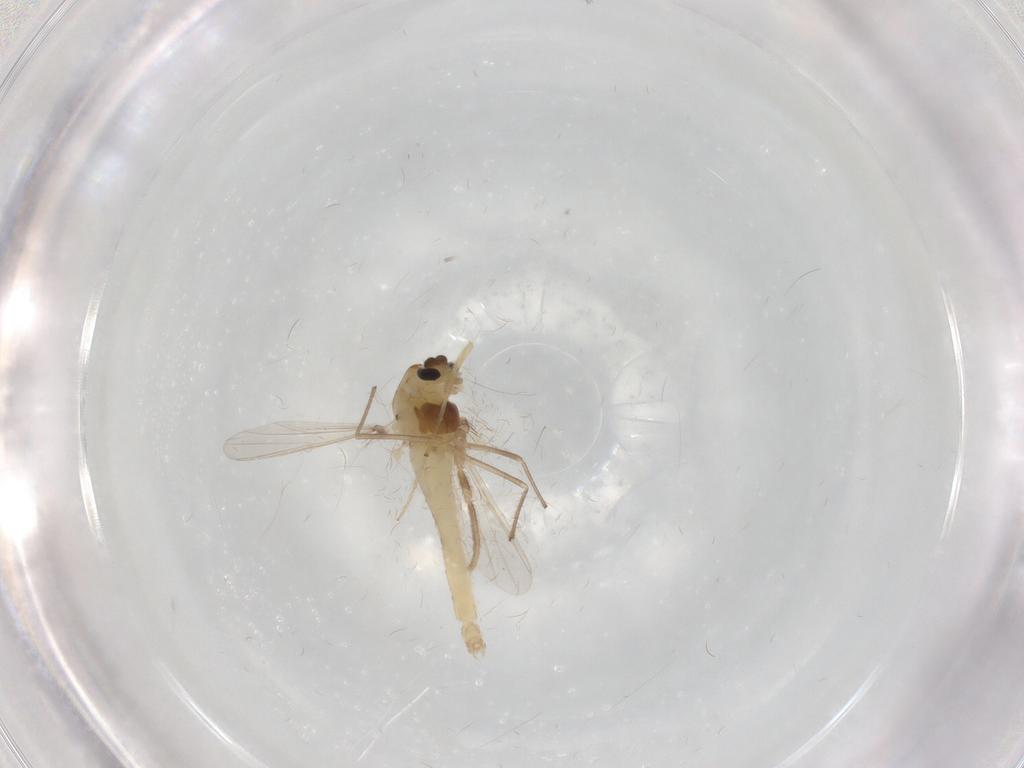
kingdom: Animalia
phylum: Arthropoda
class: Insecta
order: Diptera
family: Chironomidae
